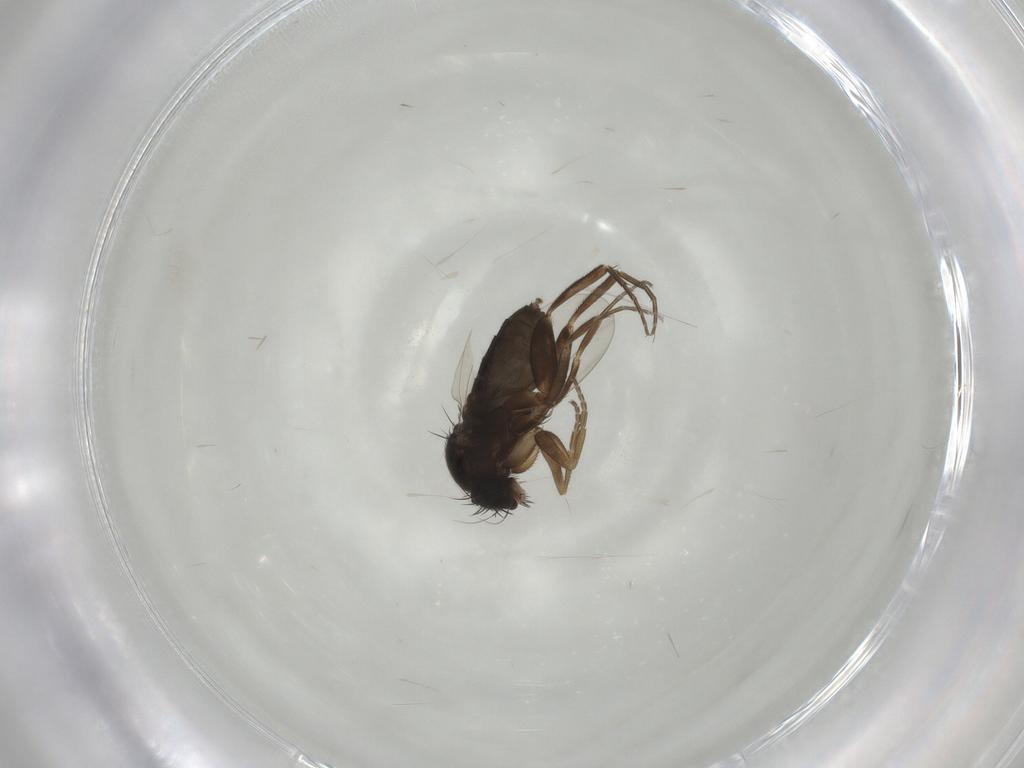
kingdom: Animalia
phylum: Arthropoda
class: Insecta
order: Diptera
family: Phoridae
